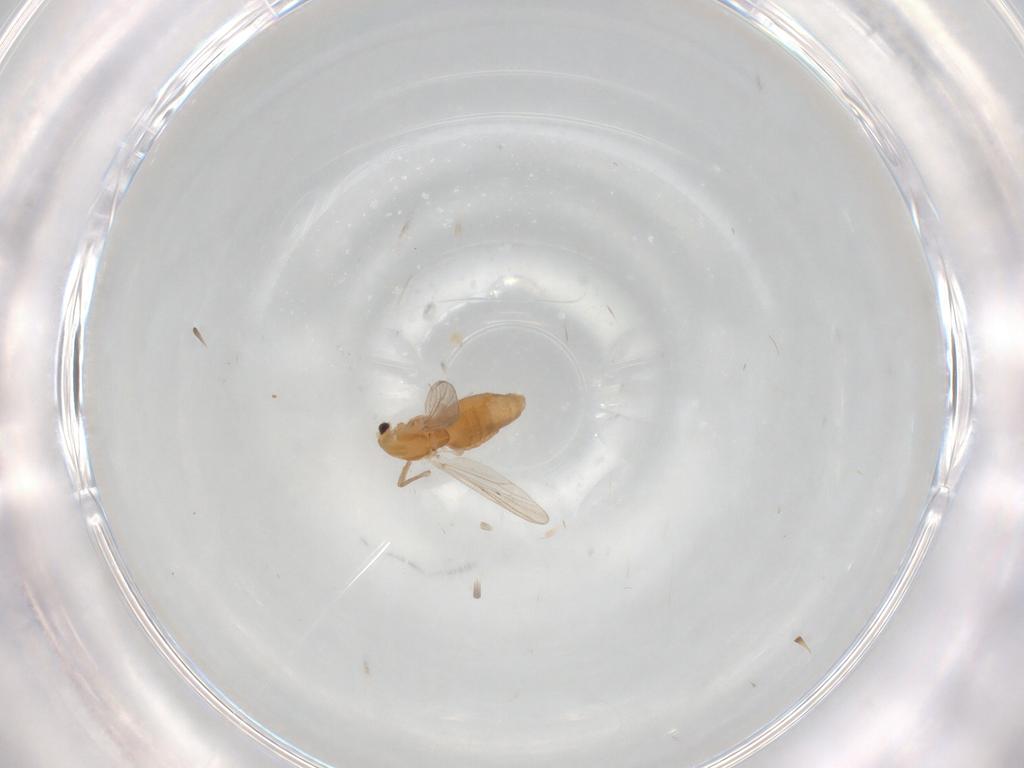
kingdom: Animalia
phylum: Arthropoda
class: Insecta
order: Diptera
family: Chironomidae
